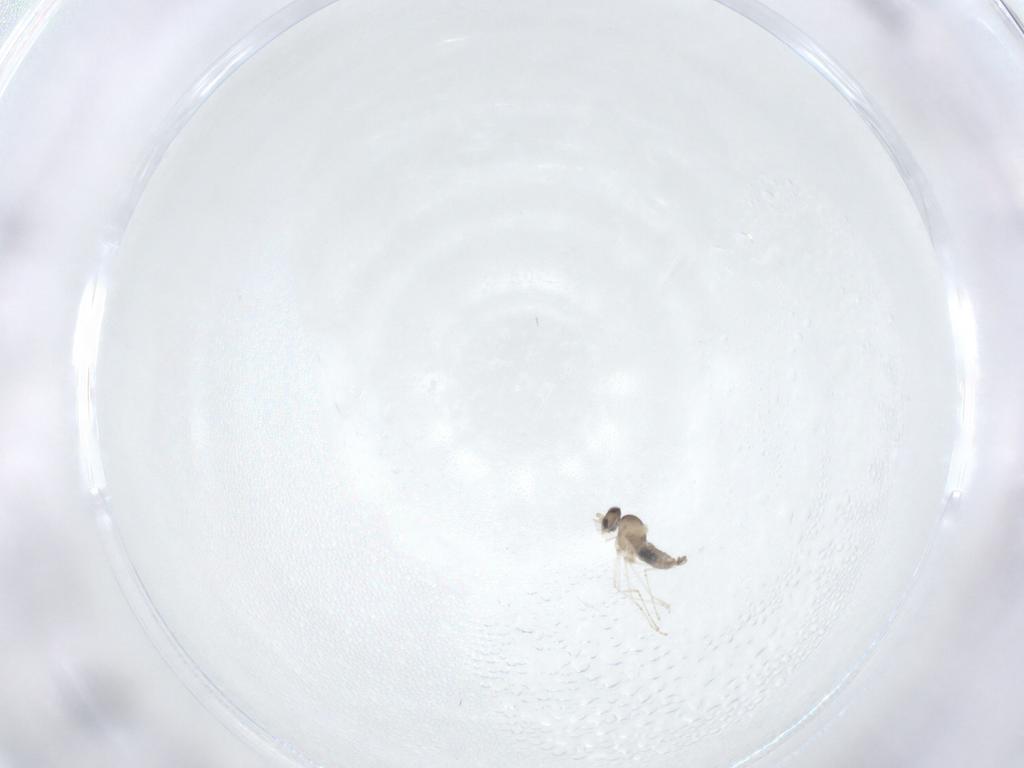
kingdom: Animalia
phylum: Arthropoda
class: Insecta
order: Diptera
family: Cecidomyiidae
